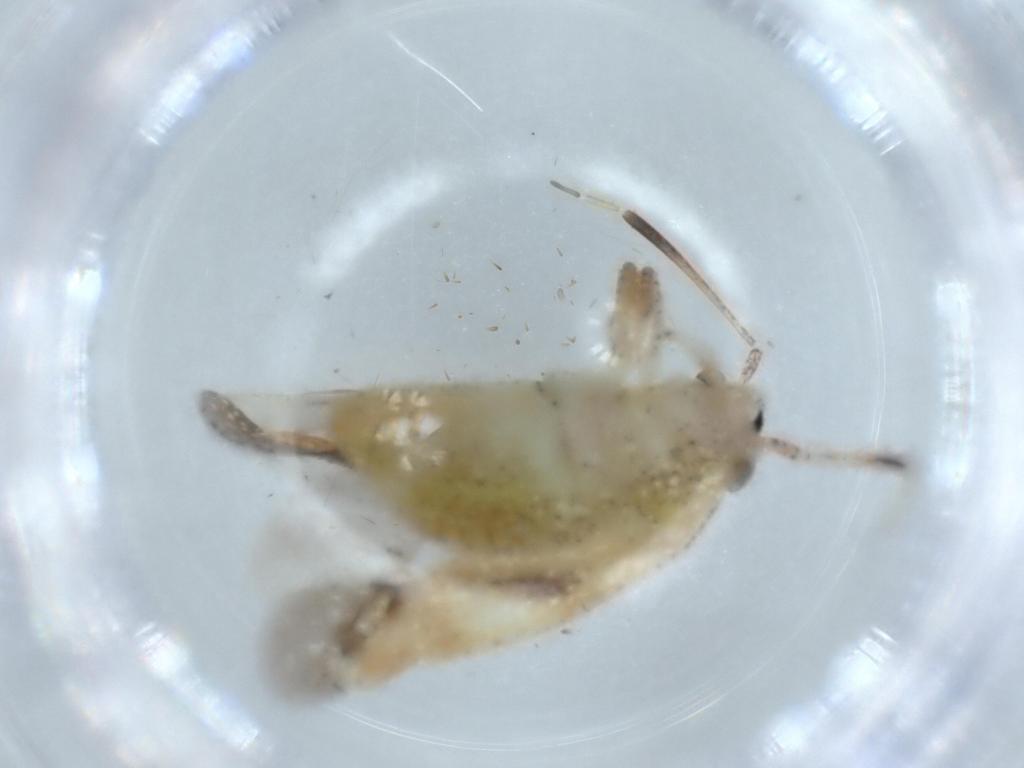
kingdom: Animalia
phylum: Arthropoda
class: Insecta
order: Hemiptera
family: Miridae
